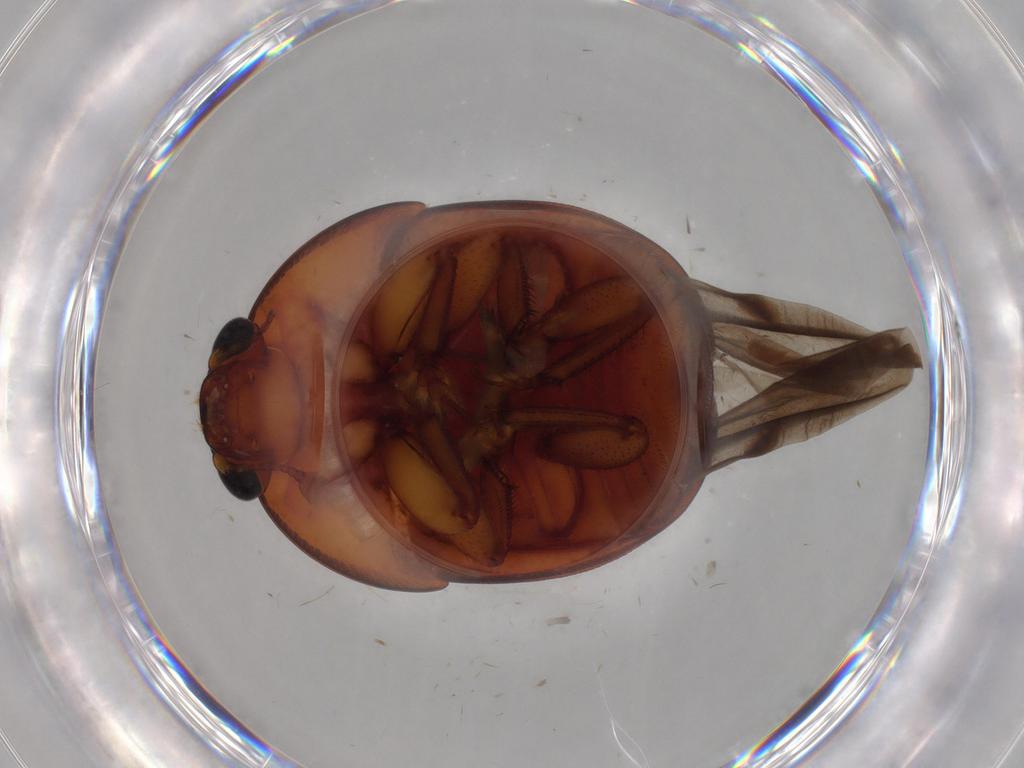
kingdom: Animalia
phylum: Arthropoda
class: Insecta
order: Coleoptera
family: Nitidulidae
